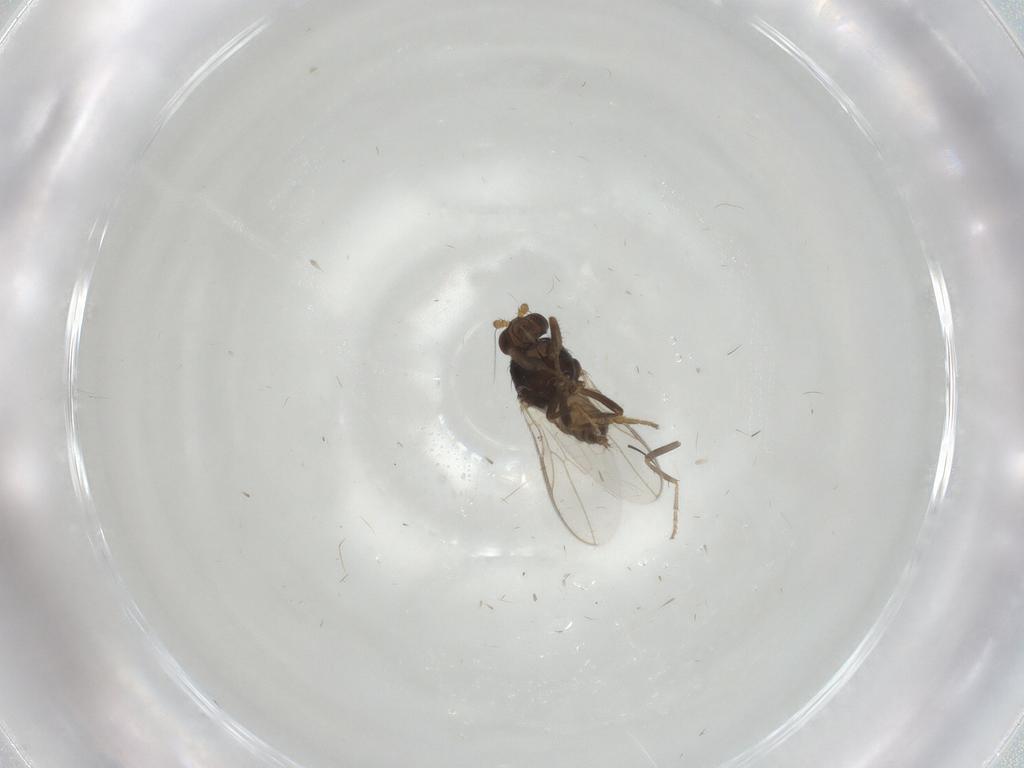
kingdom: Animalia
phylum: Arthropoda
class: Insecta
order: Diptera
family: Sphaeroceridae
